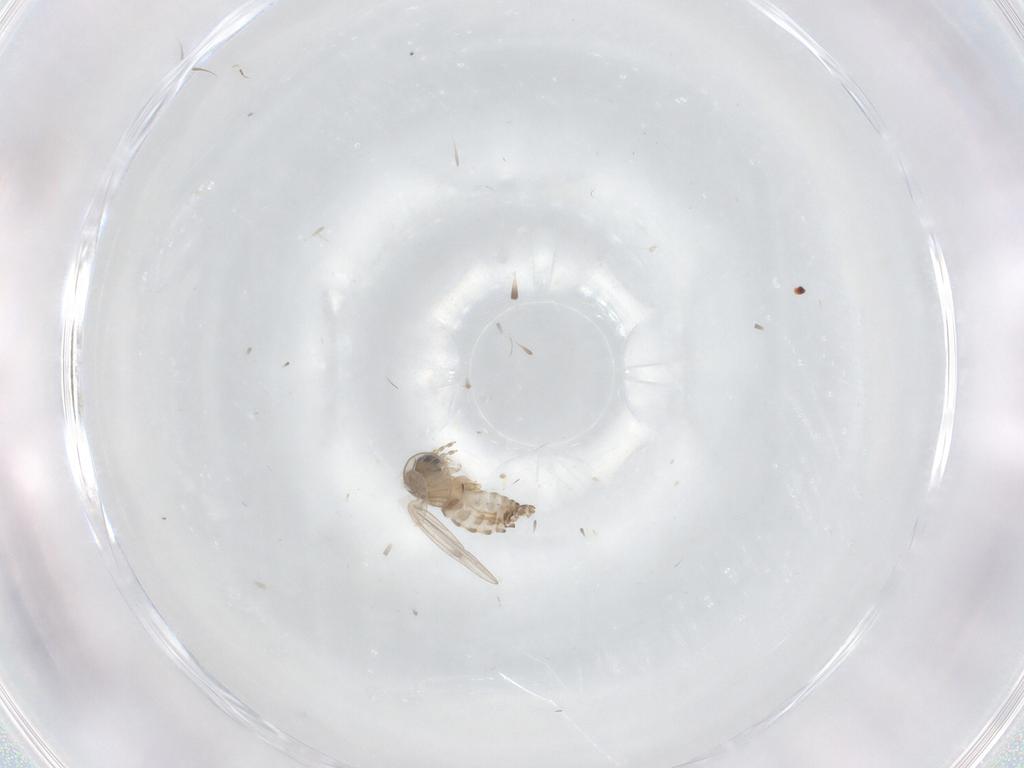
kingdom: Animalia
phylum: Arthropoda
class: Insecta
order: Diptera
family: Cecidomyiidae
